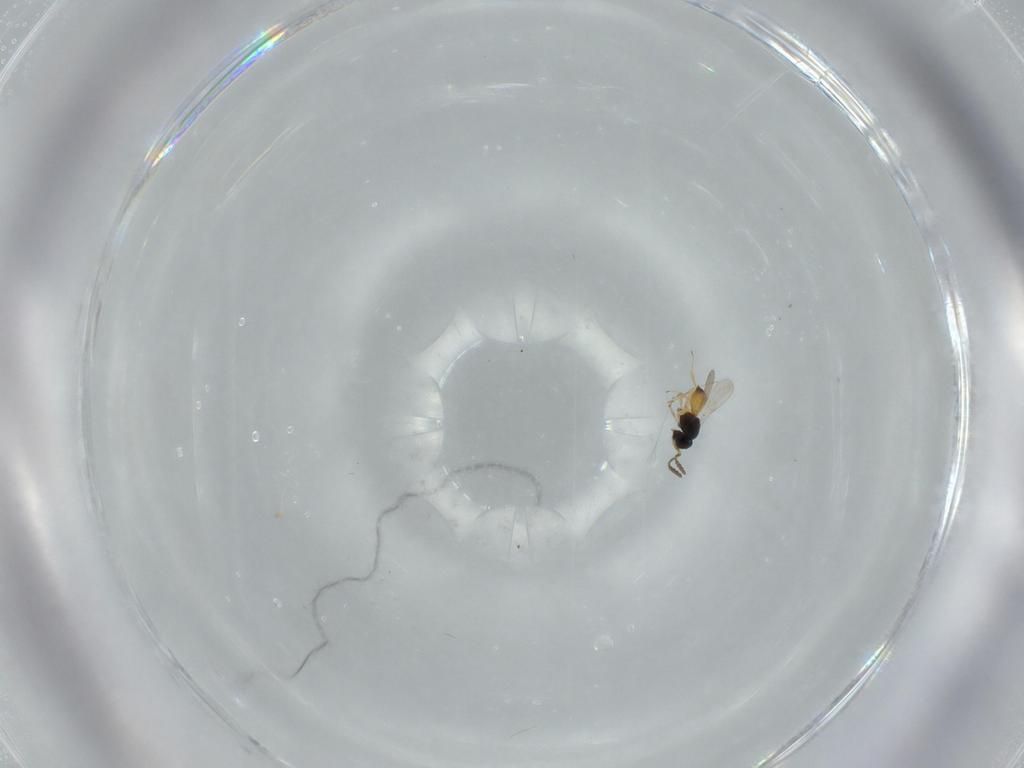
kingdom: Animalia
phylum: Arthropoda
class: Insecta
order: Hymenoptera
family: Scelionidae
